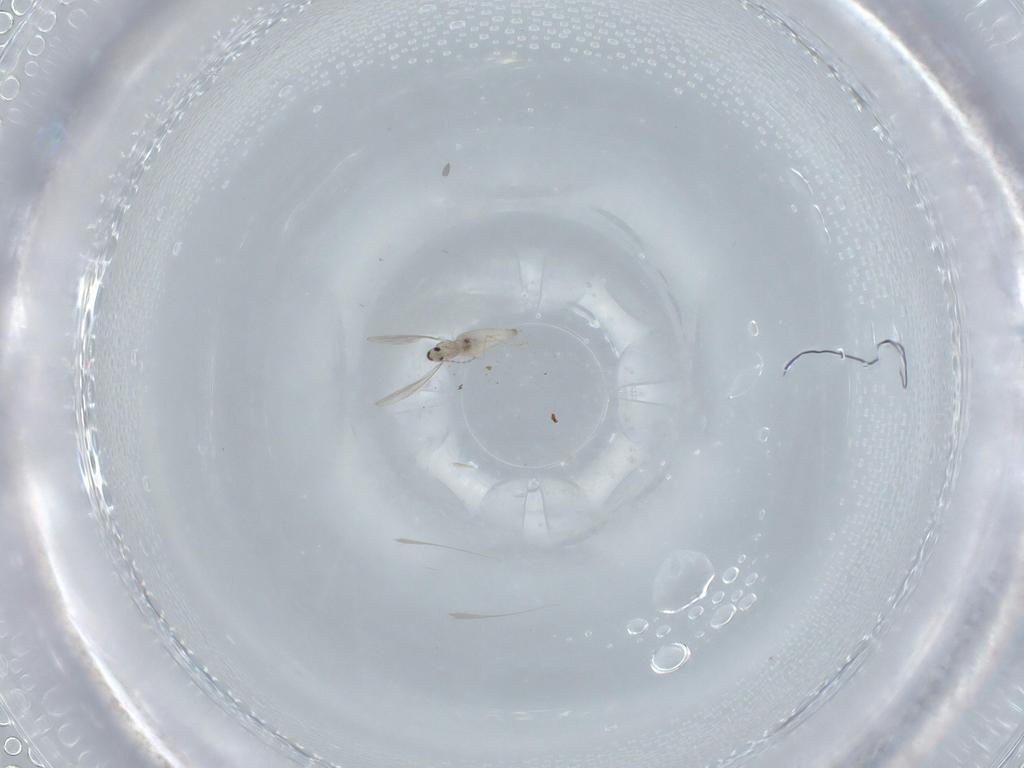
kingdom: Animalia
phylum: Arthropoda
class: Insecta
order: Diptera
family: Cecidomyiidae
